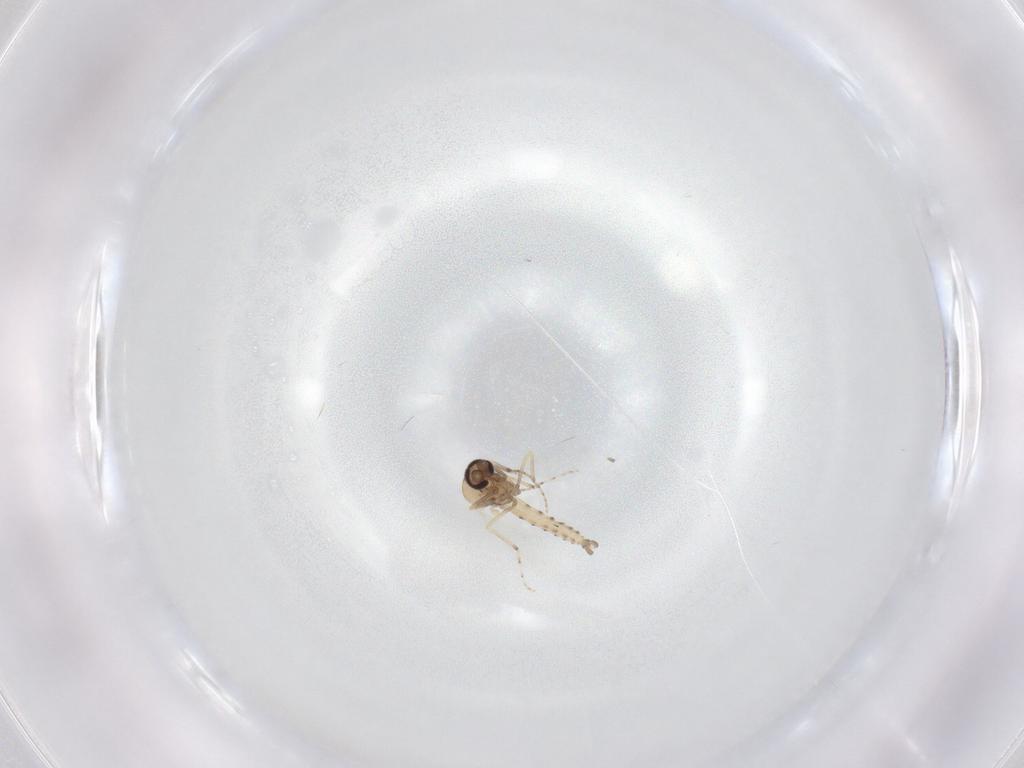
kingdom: Animalia
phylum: Arthropoda
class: Insecta
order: Diptera
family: Ceratopogonidae
